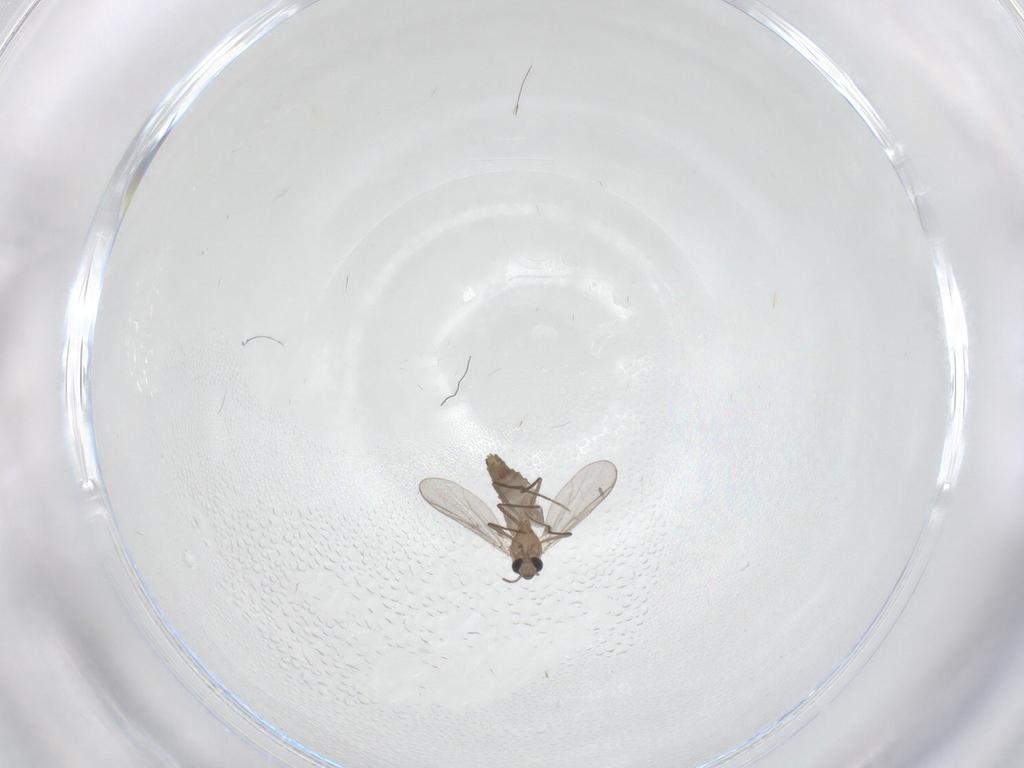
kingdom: Animalia
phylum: Arthropoda
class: Insecta
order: Diptera
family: Chironomidae
